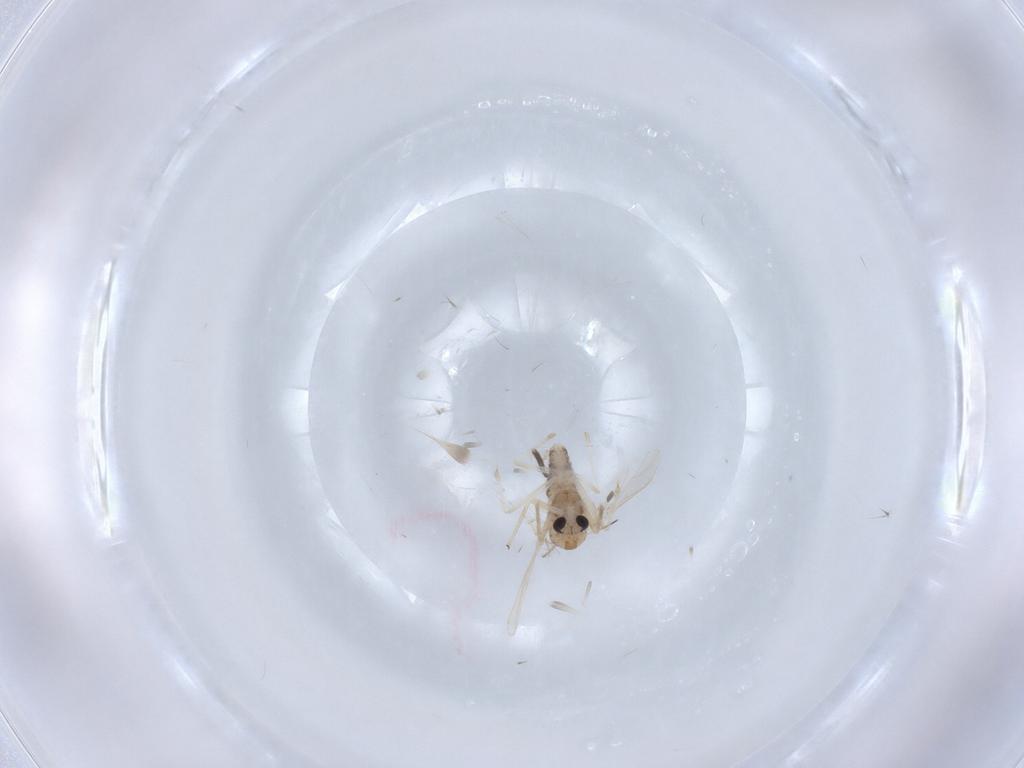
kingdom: Animalia
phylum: Arthropoda
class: Insecta
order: Diptera
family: Chironomidae
